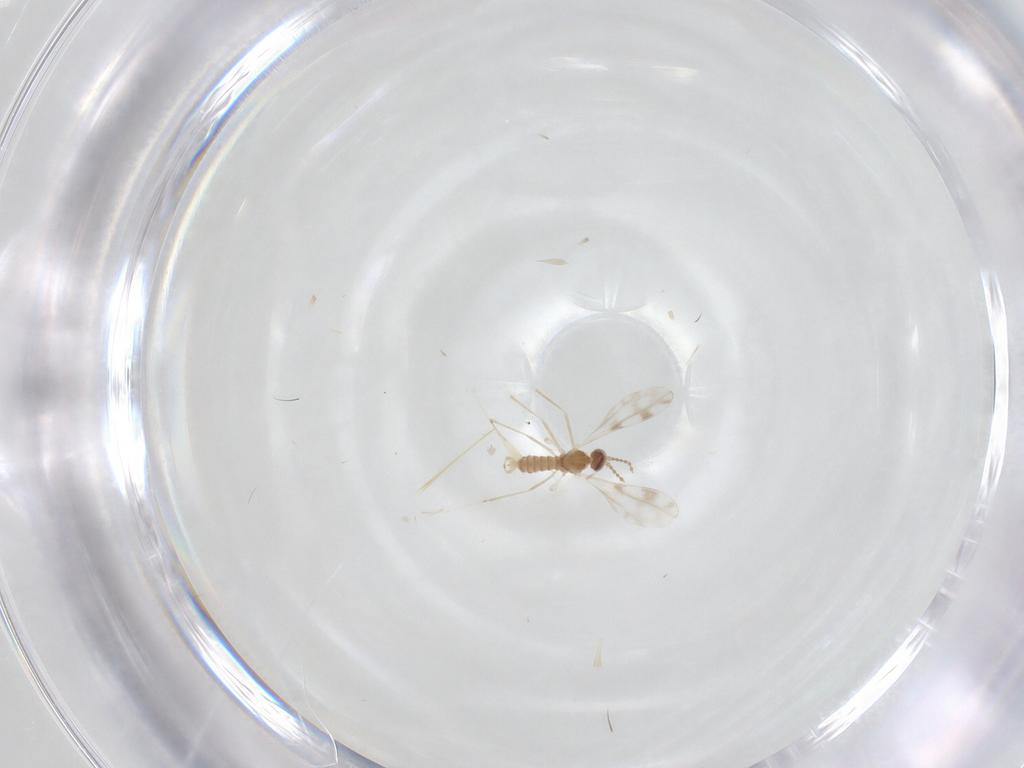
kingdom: Animalia
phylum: Arthropoda
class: Insecta
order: Diptera
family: Cecidomyiidae
